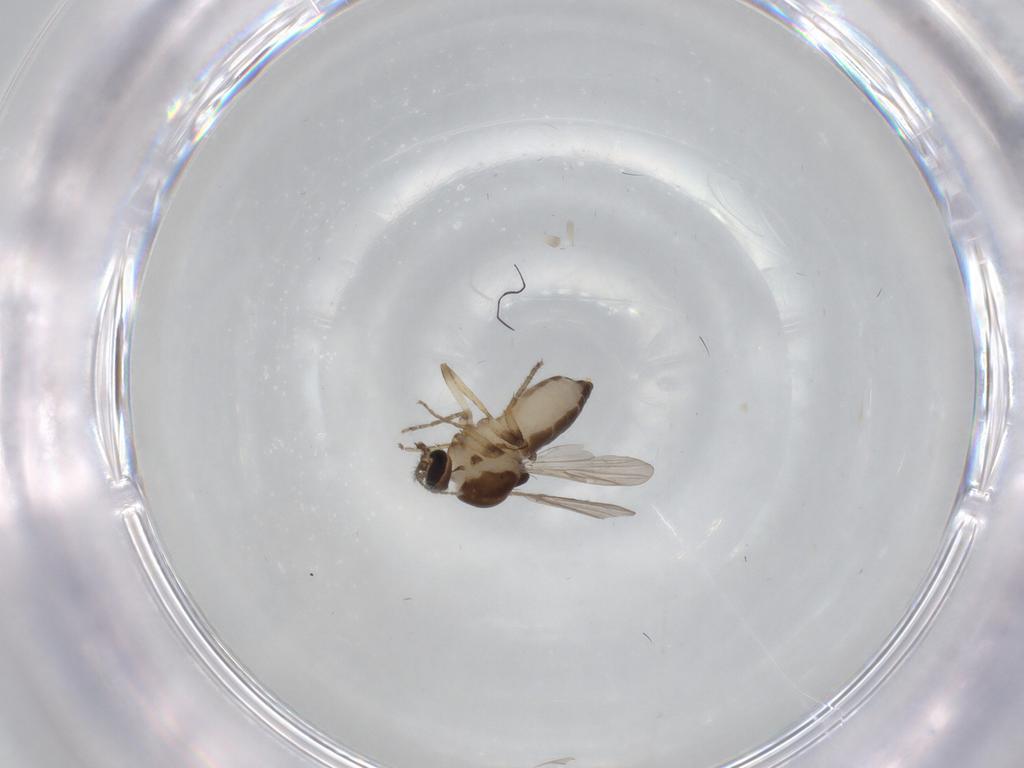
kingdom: Animalia
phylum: Arthropoda
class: Insecta
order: Diptera
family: Ceratopogonidae
